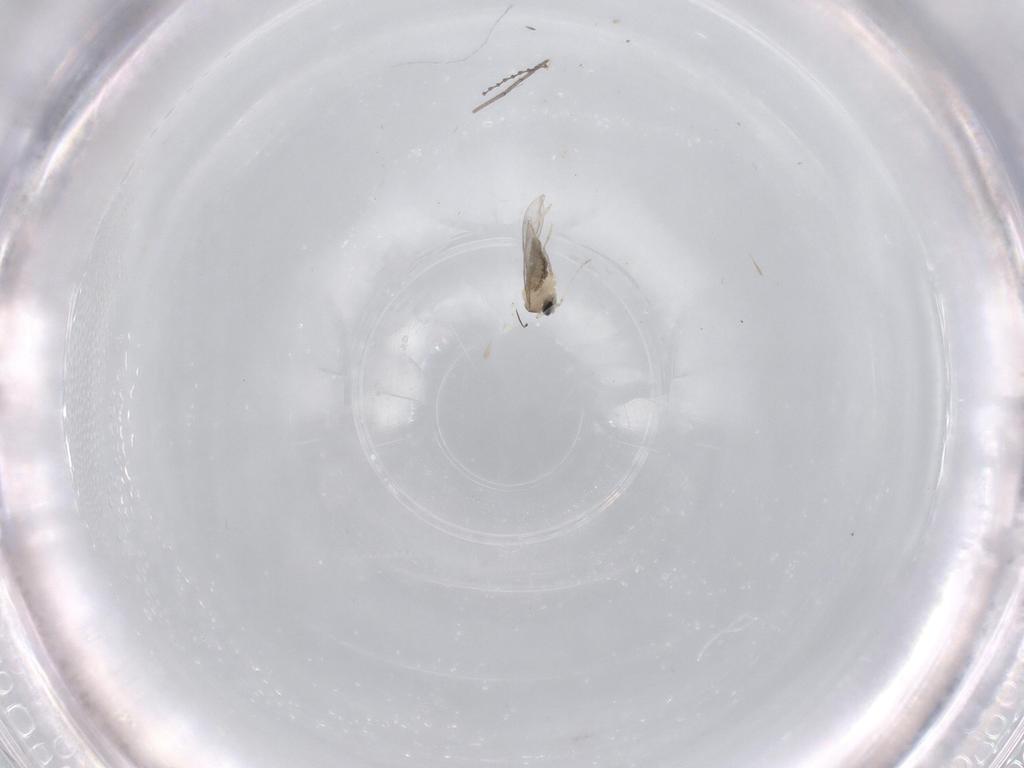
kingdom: Animalia
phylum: Arthropoda
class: Insecta
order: Diptera
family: Cecidomyiidae
